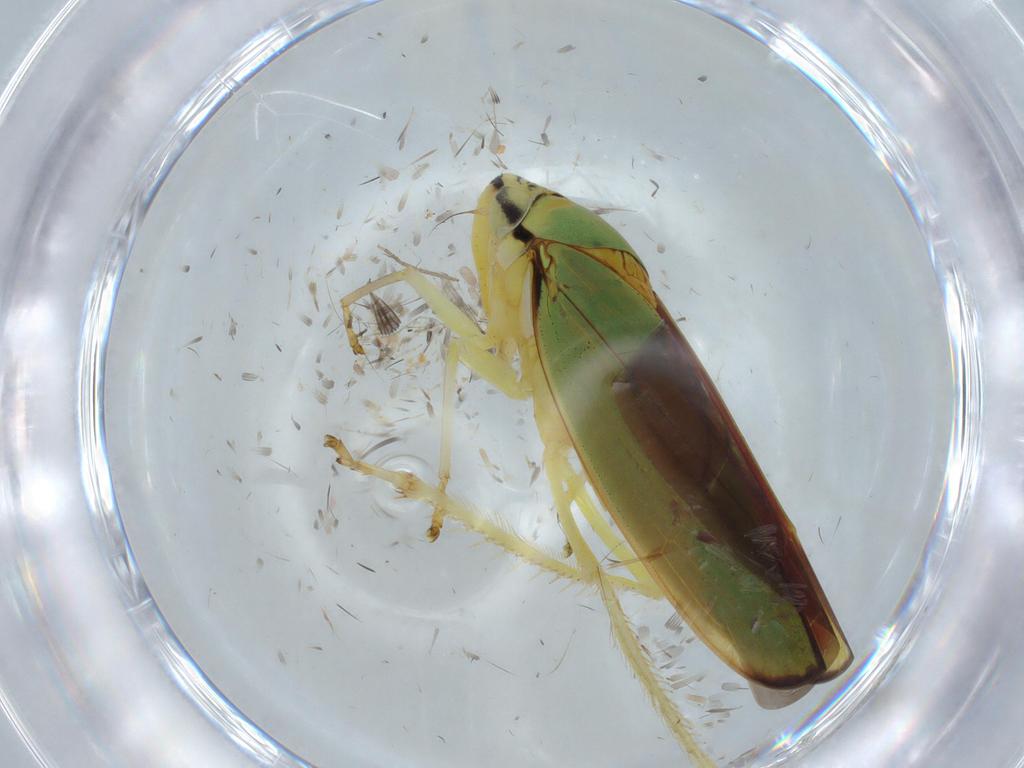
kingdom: Animalia
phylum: Arthropoda
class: Insecta
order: Hemiptera
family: Cicadellidae
